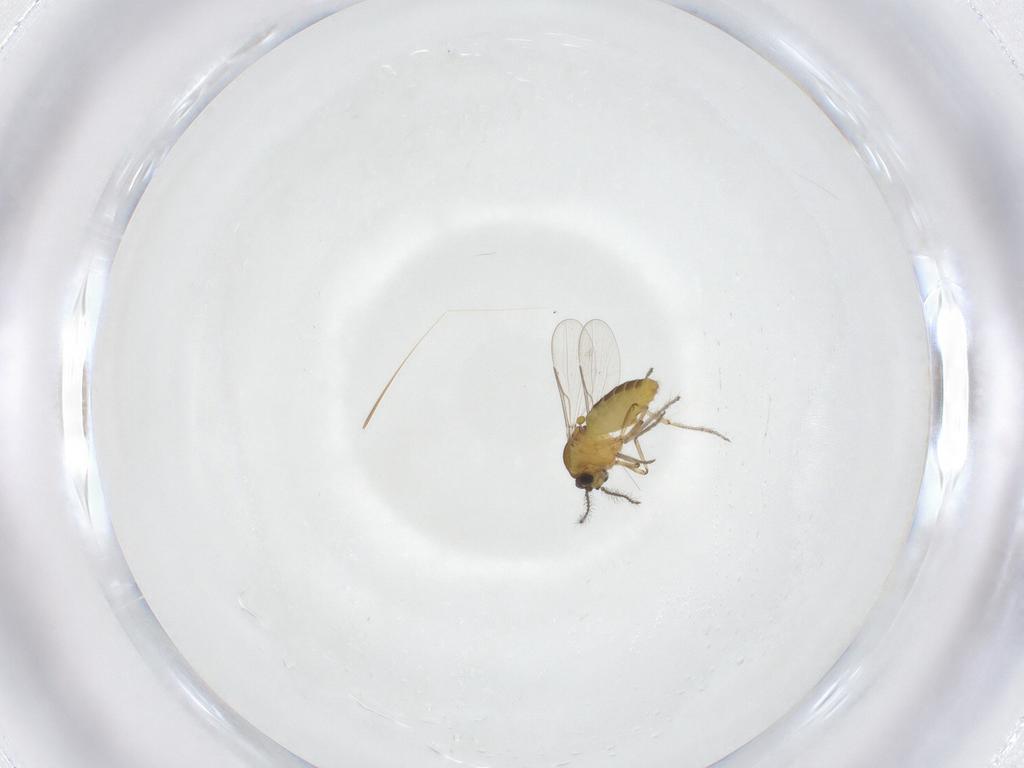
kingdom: Animalia
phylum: Arthropoda
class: Insecta
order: Diptera
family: Ceratopogonidae
